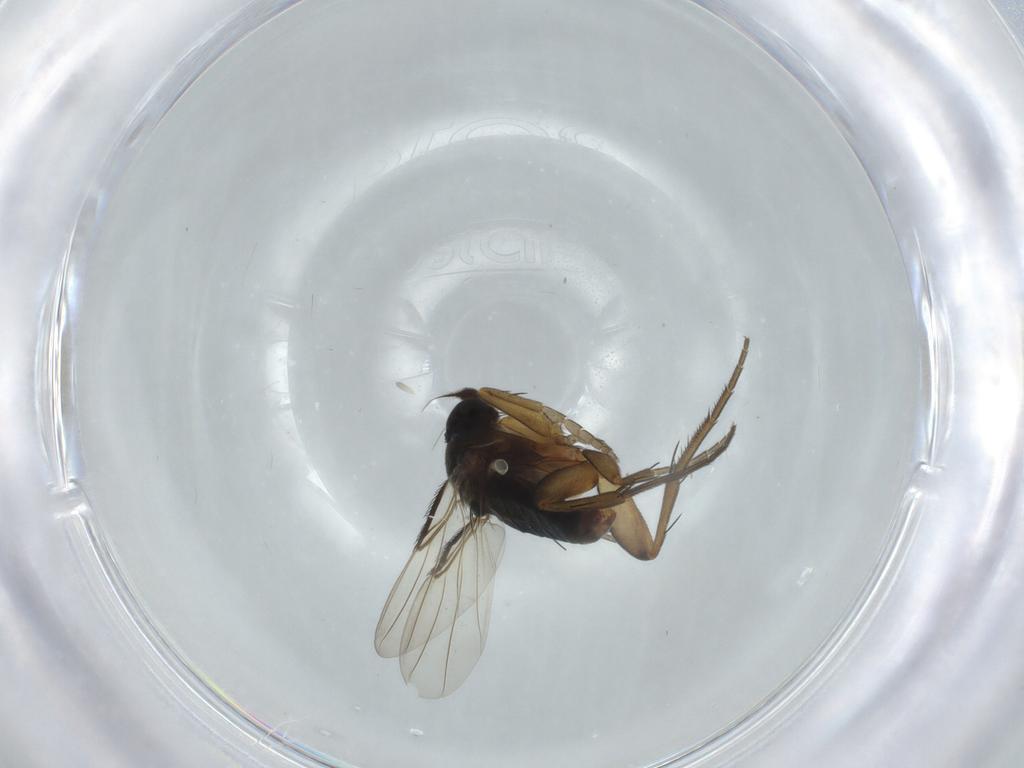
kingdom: Animalia
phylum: Arthropoda
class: Insecta
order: Diptera
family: Phoridae
